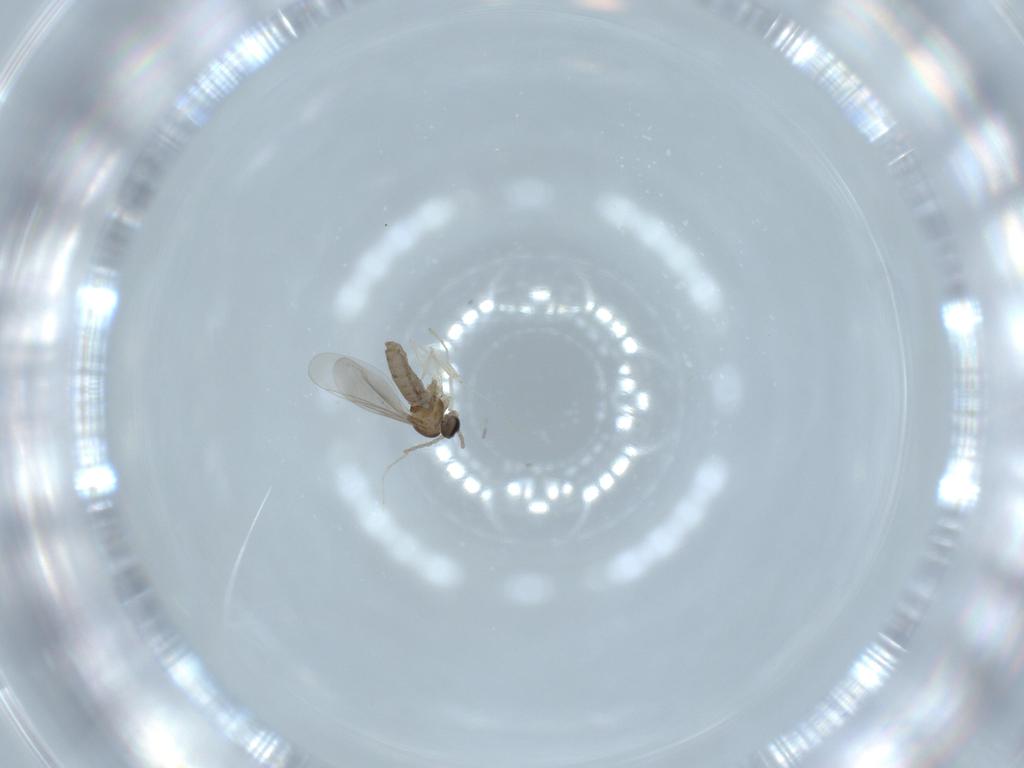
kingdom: Animalia
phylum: Arthropoda
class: Insecta
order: Diptera
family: Cecidomyiidae
